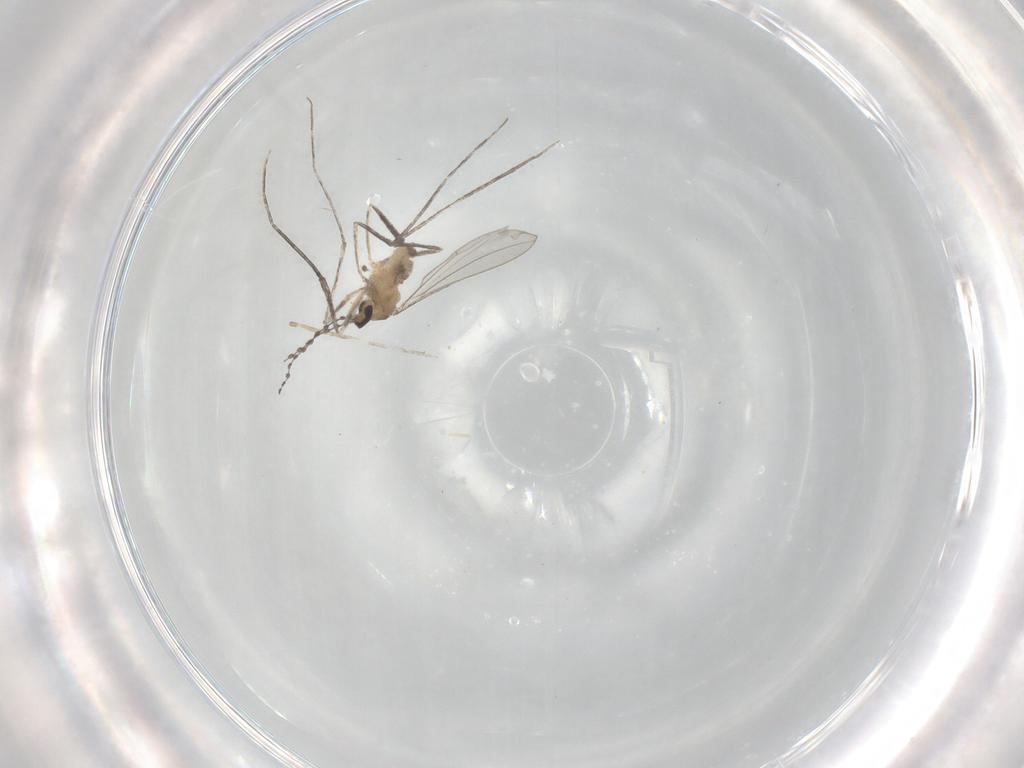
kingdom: Animalia
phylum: Arthropoda
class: Insecta
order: Diptera
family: Cecidomyiidae
